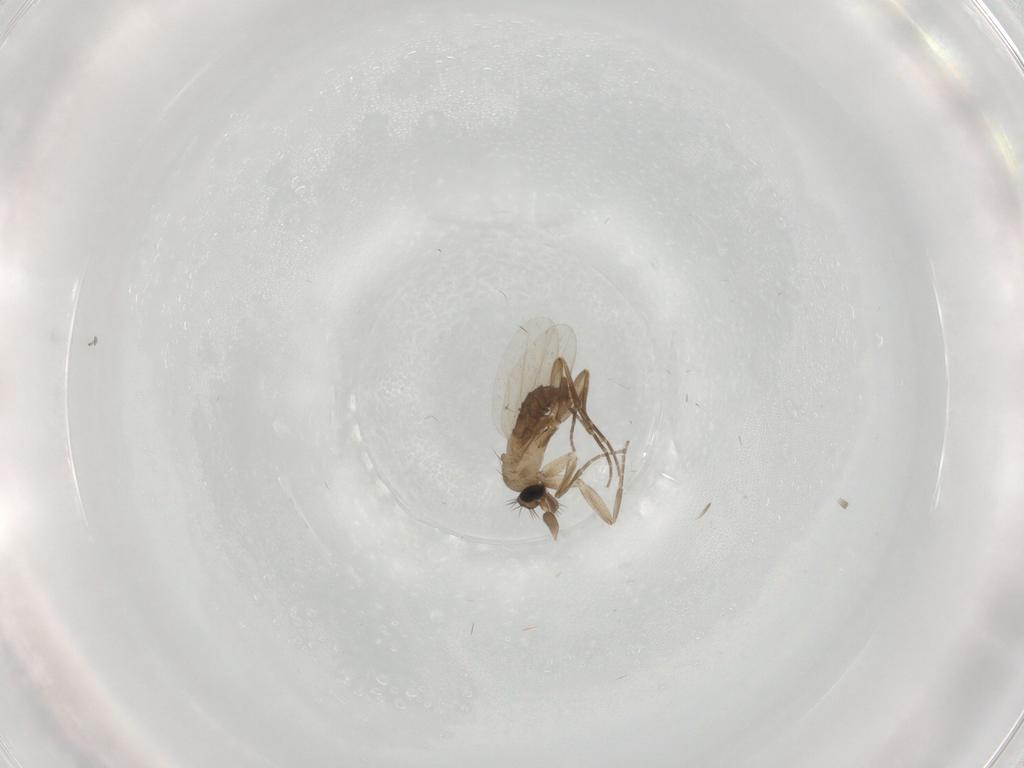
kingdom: Animalia
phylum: Arthropoda
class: Insecta
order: Diptera
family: Phoridae
